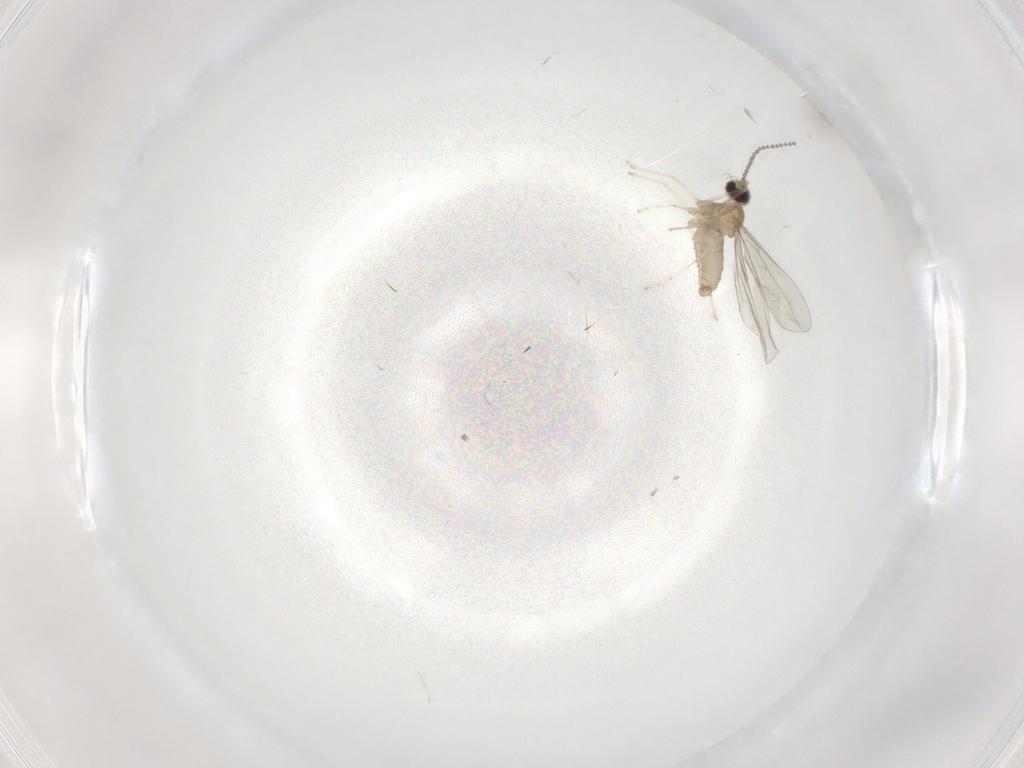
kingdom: Animalia
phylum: Arthropoda
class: Insecta
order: Diptera
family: Cecidomyiidae
